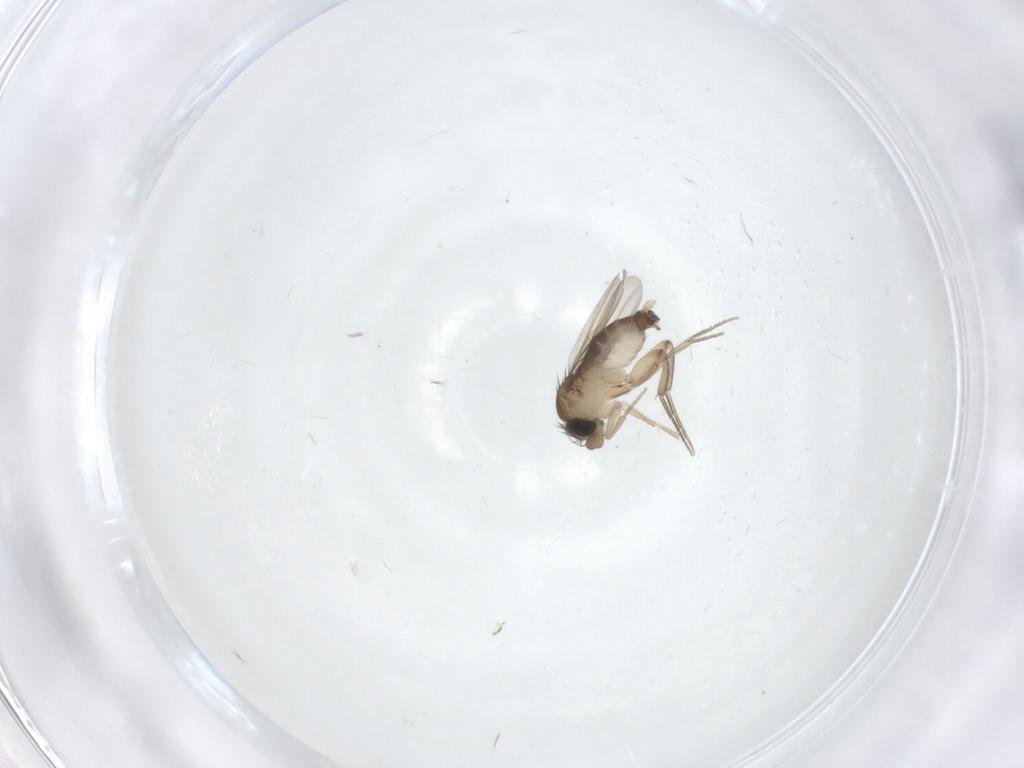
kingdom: Animalia
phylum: Arthropoda
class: Insecta
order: Diptera
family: Phoridae
